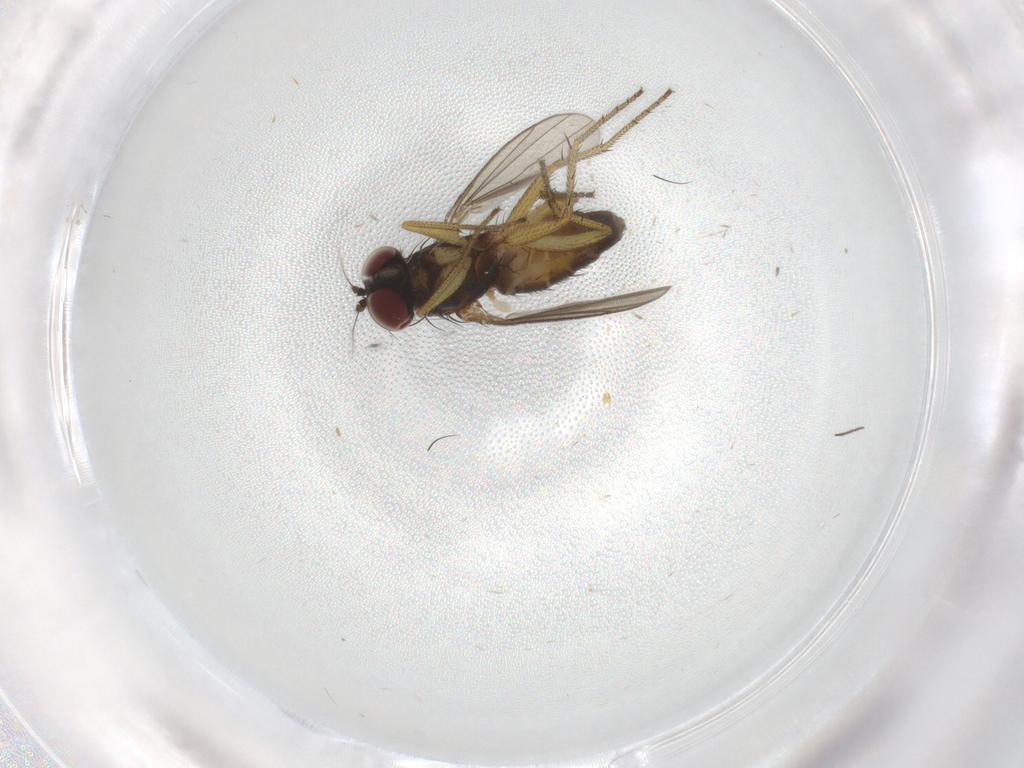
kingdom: Animalia
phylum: Arthropoda
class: Insecta
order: Diptera
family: Dolichopodidae
